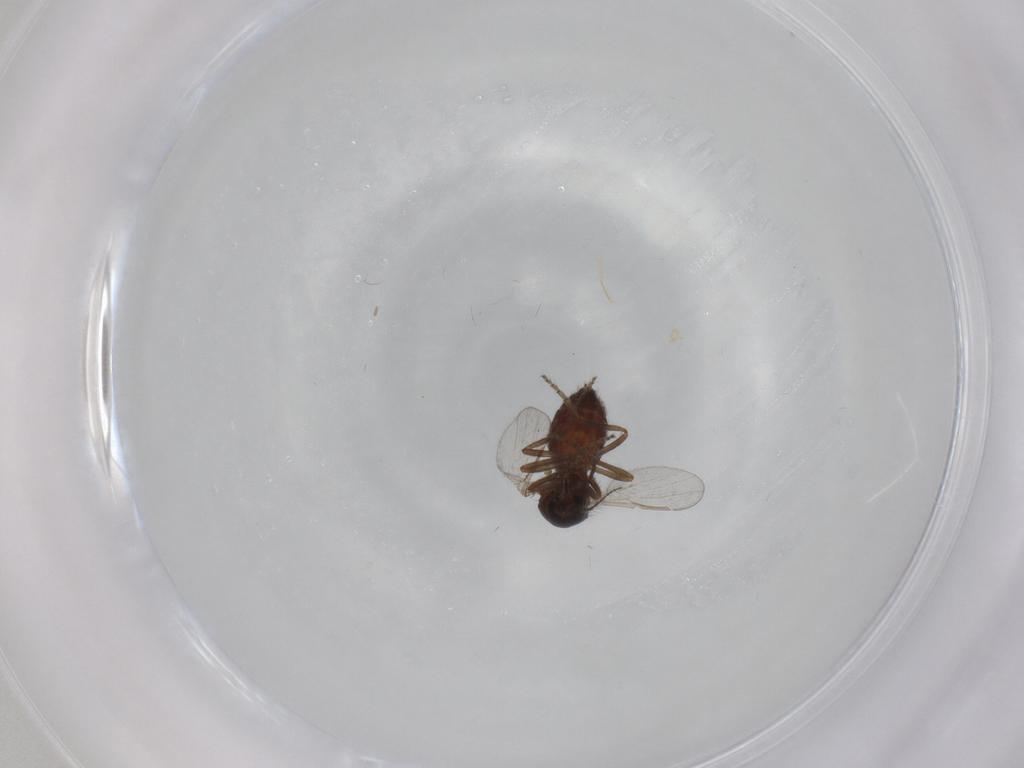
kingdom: Animalia
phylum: Arthropoda
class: Insecta
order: Diptera
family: Ceratopogonidae
